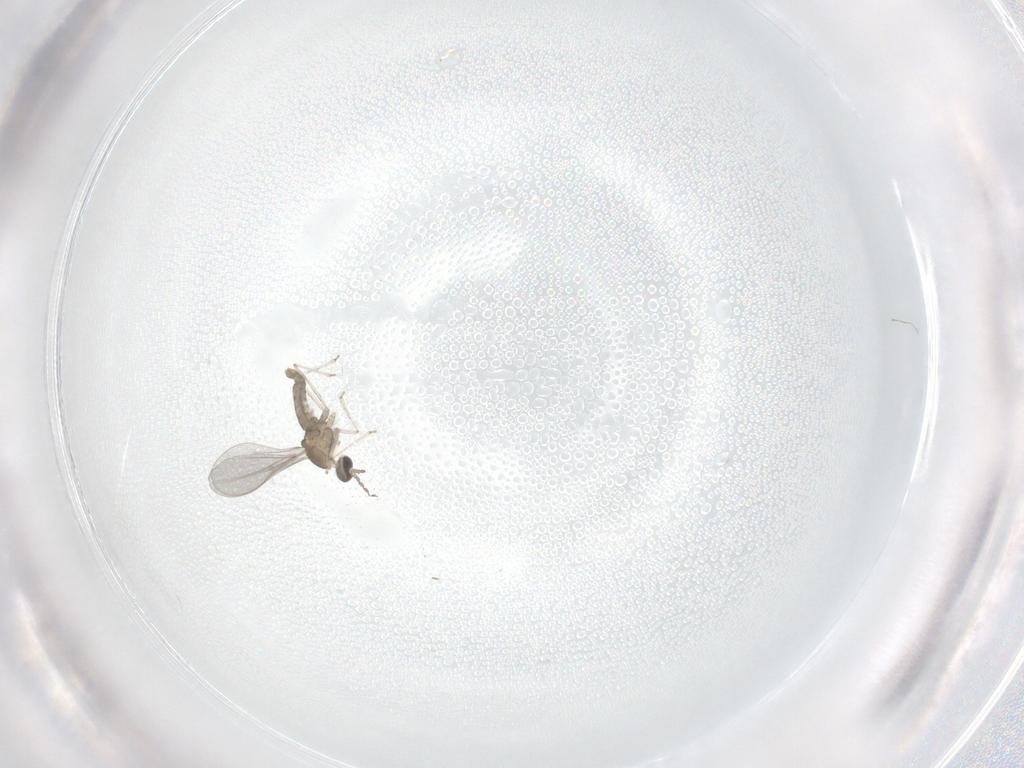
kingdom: Animalia
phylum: Arthropoda
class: Insecta
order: Diptera
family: Cecidomyiidae
